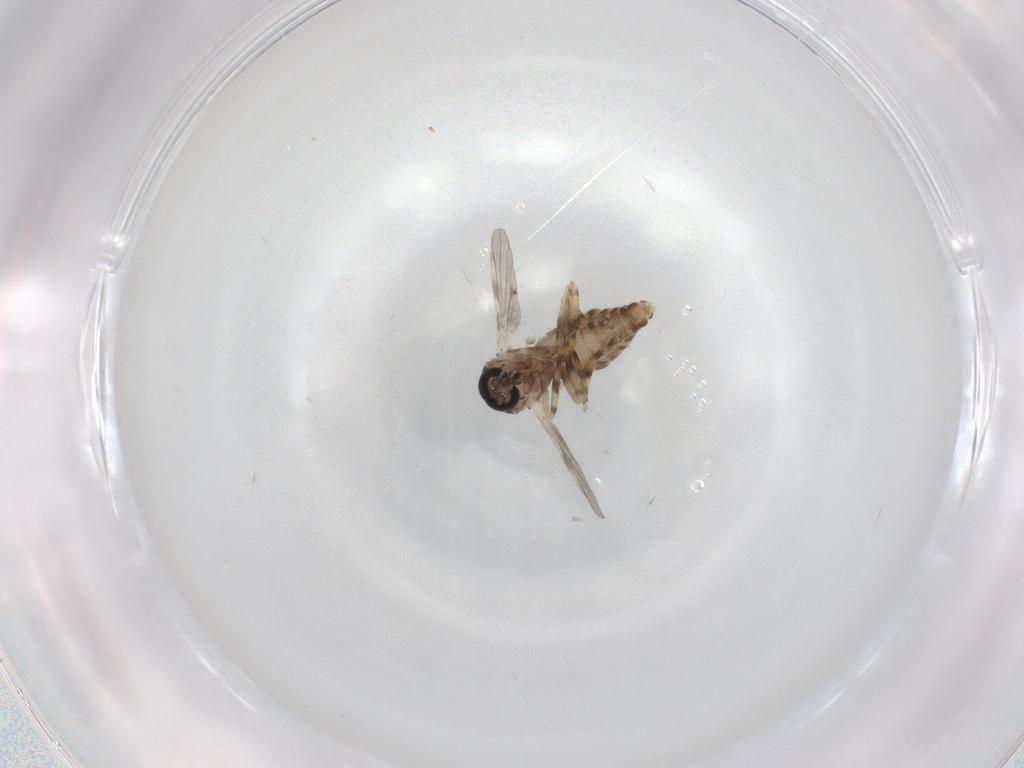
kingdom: Animalia
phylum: Arthropoda
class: Insecta
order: Diptera
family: Ceratopogonidae
